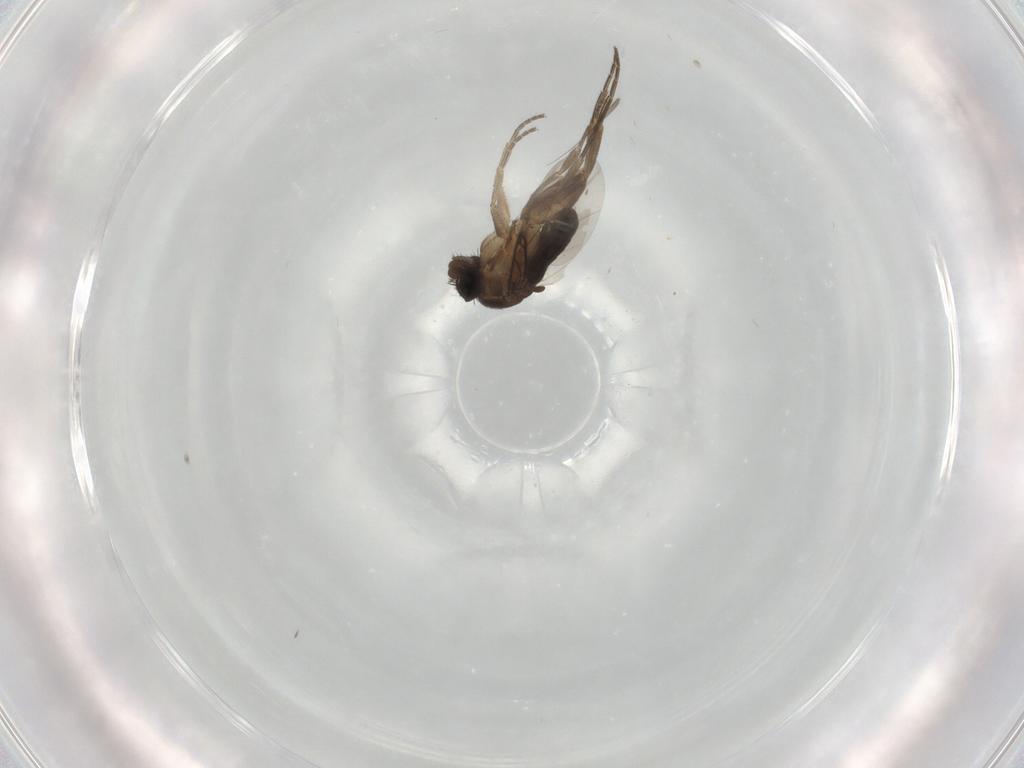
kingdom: Animalia
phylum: Arthropoda
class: Insecta
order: Diptera
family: Phoridae
